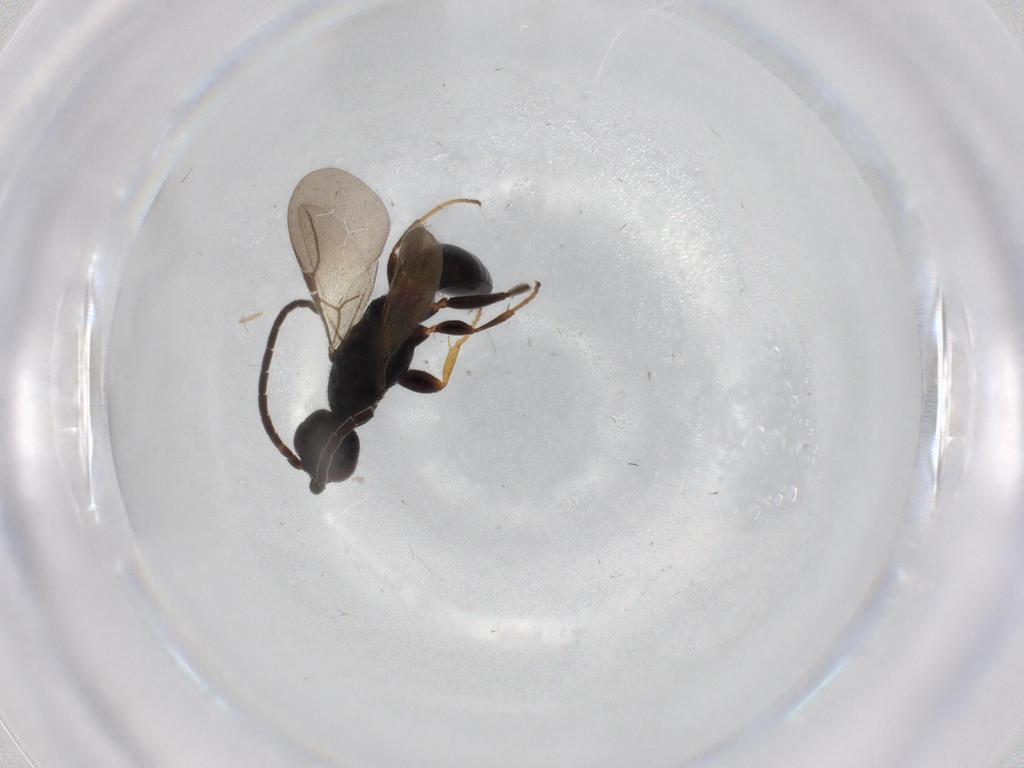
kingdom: Animalia
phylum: Arthropoda
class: Insecta
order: Hymenoptera
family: Bethylidae
